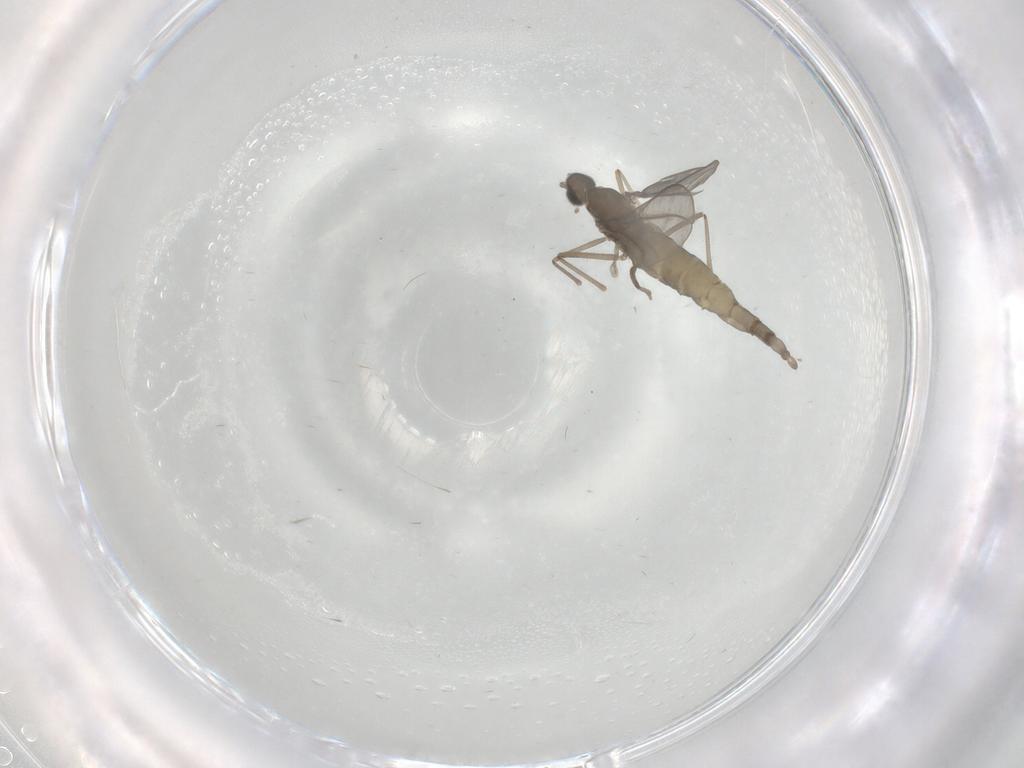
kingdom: Animalia
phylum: Arthropoda
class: Insecta
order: Diptera
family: Cecidomyiidae
